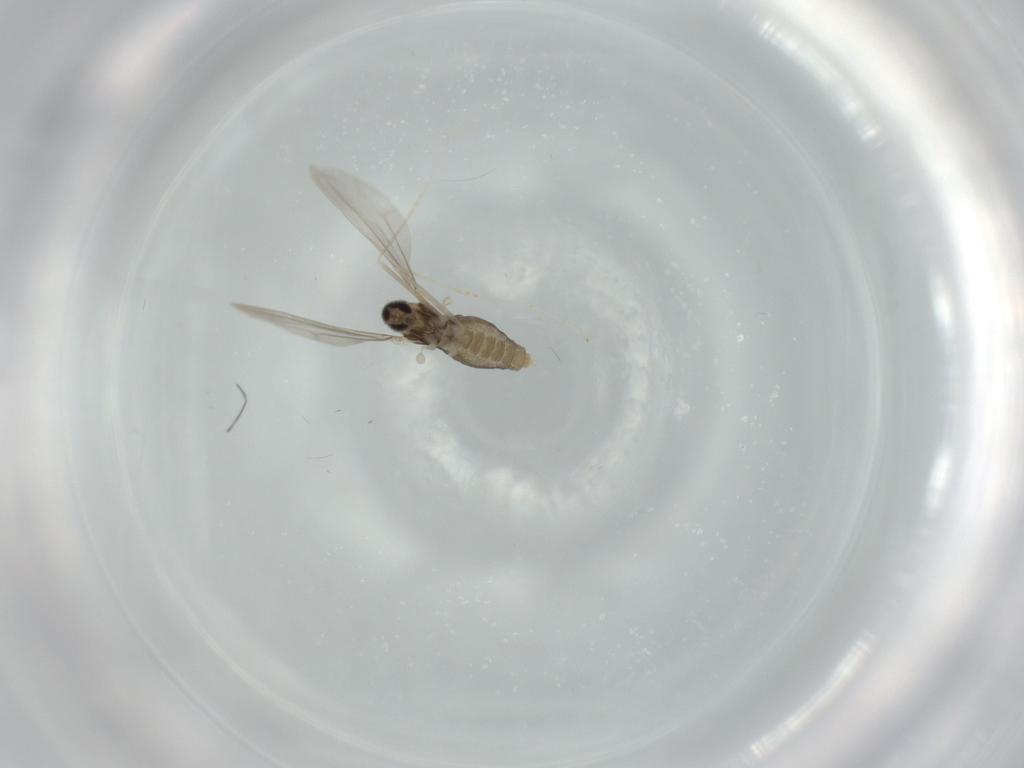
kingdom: Animalia
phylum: Arthropoda
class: Insecta
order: Diptera
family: Cecidomyiidae
